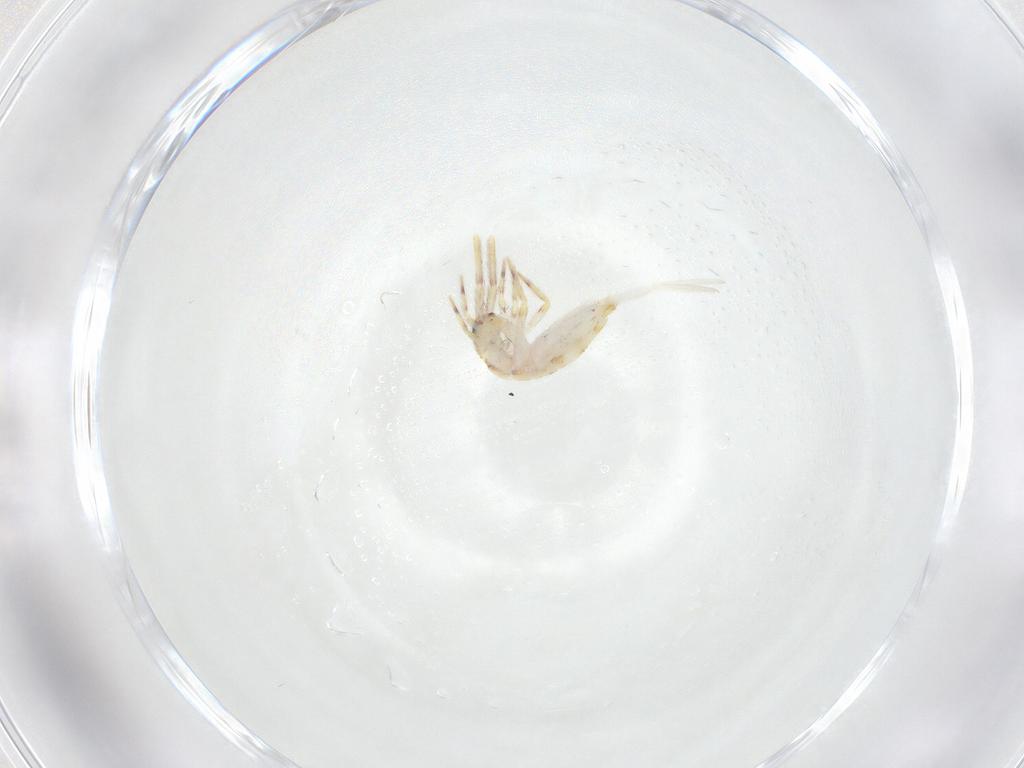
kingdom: Animalia
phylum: Arthropoda
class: Collembola
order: Entomobryomorpha
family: Entomobryidae
